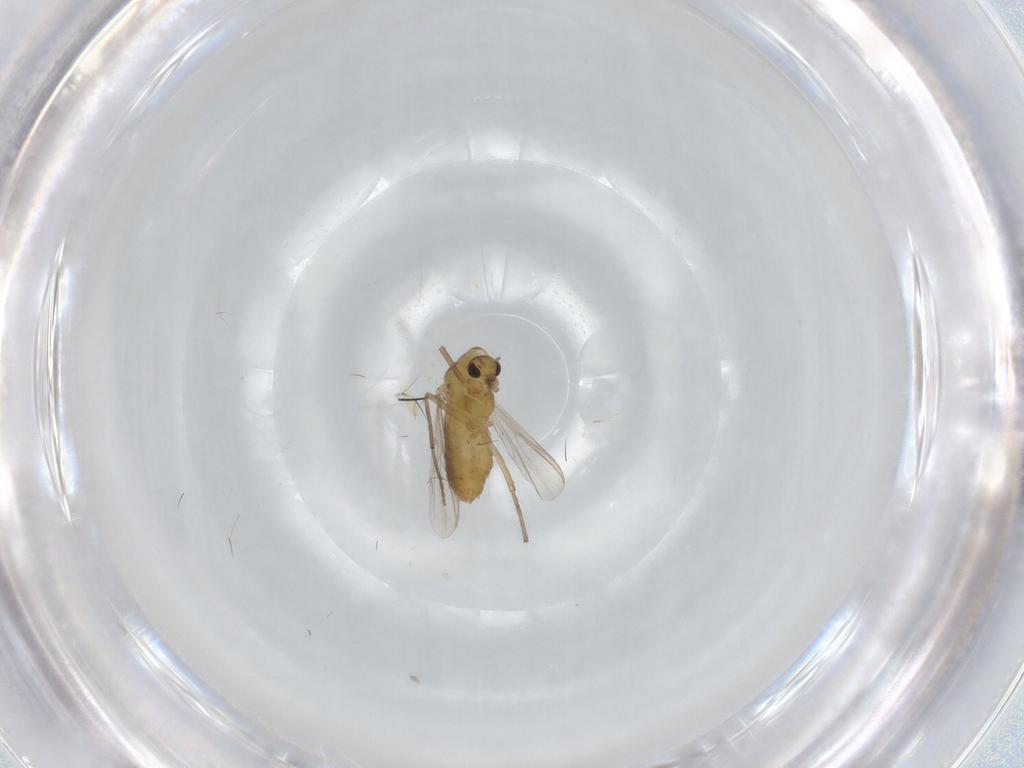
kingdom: Animalia
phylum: Arthropoda
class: Insecta
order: Diptera
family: Chironomidae
